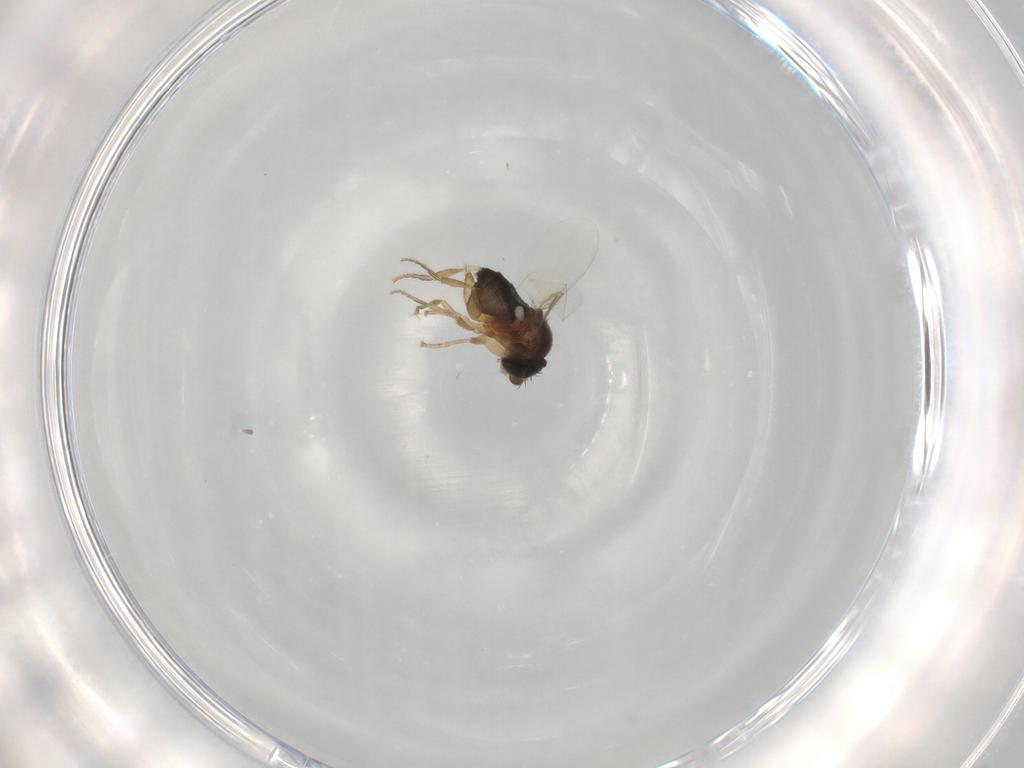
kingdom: Animalia
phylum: Arthropoda
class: Insecta
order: Diptera
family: Phoridae
